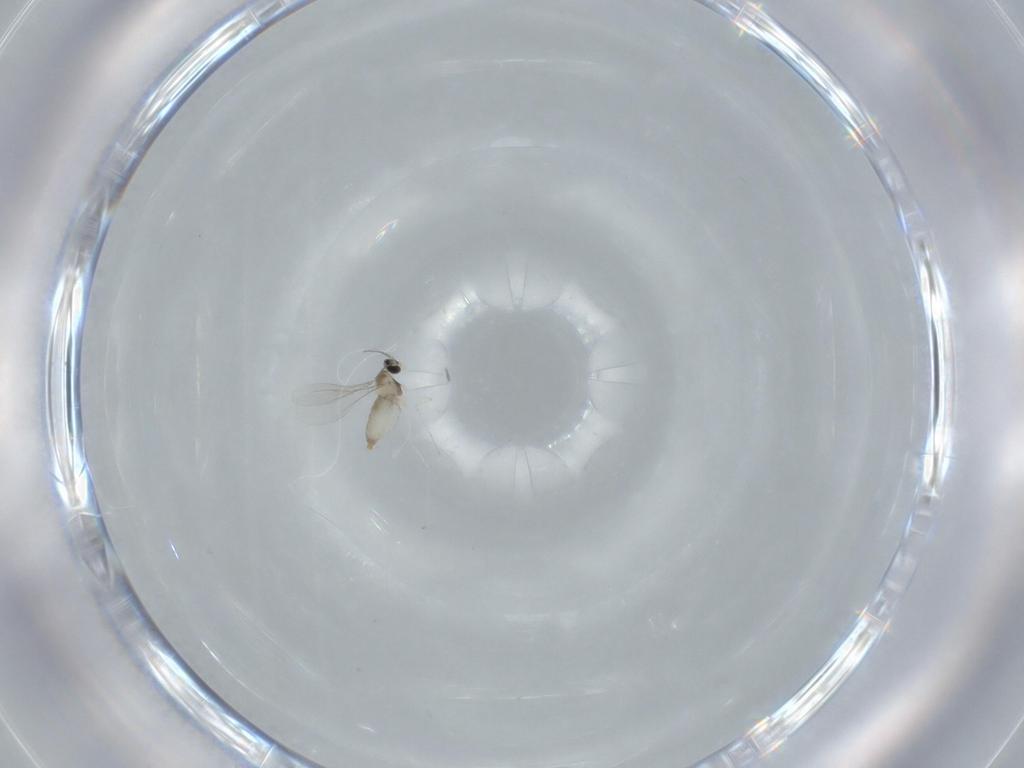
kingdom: Animalia
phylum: Arthropoda
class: Insecta
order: Diptera
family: Cecidomyiidae
